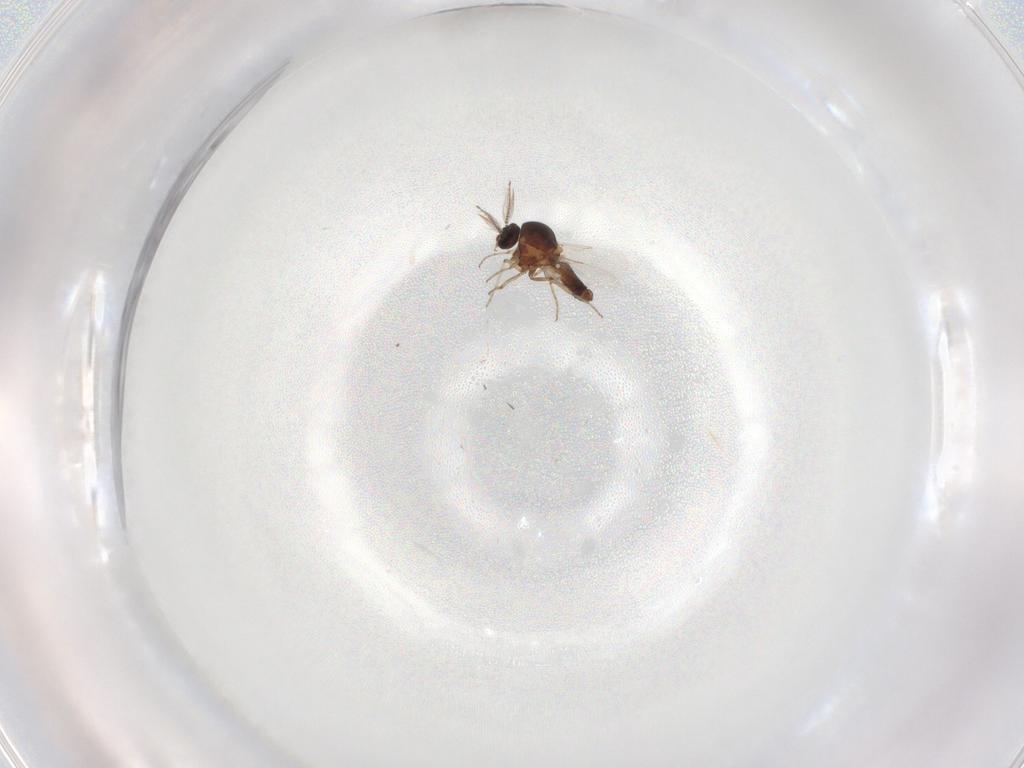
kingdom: Animalia
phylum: Arthropoda
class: Insecta
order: Diptera
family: Ceratopogonidae
